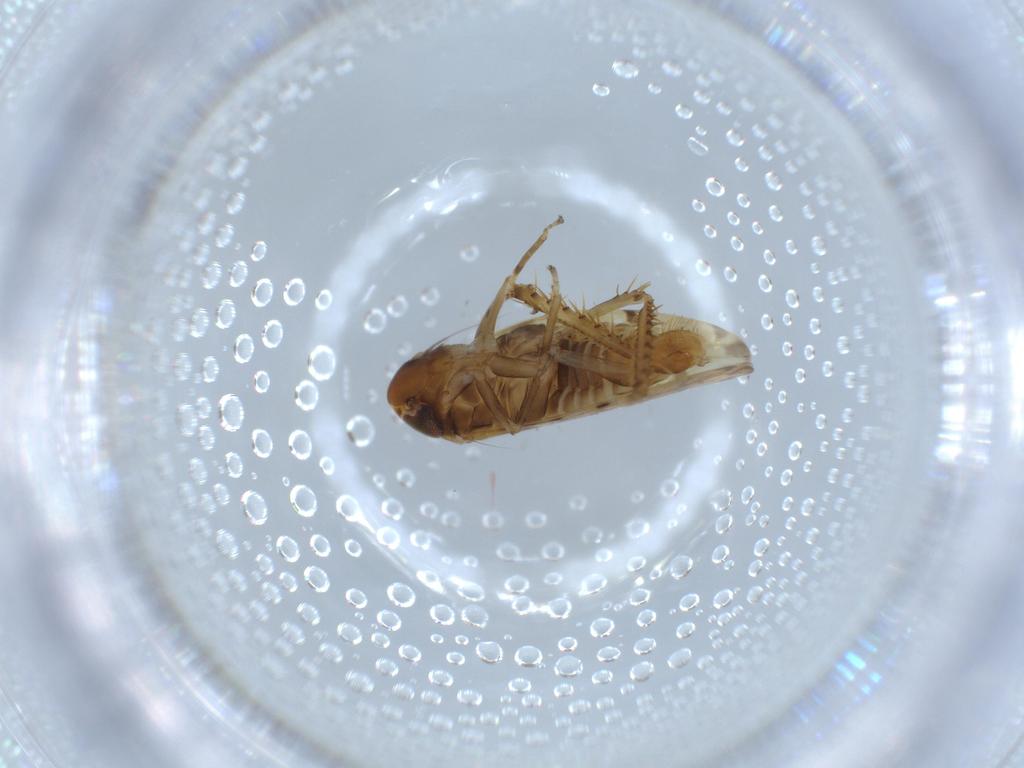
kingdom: Animalia
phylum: Arthropoda
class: Insecta
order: Hemiptera
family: Cicadellidae
